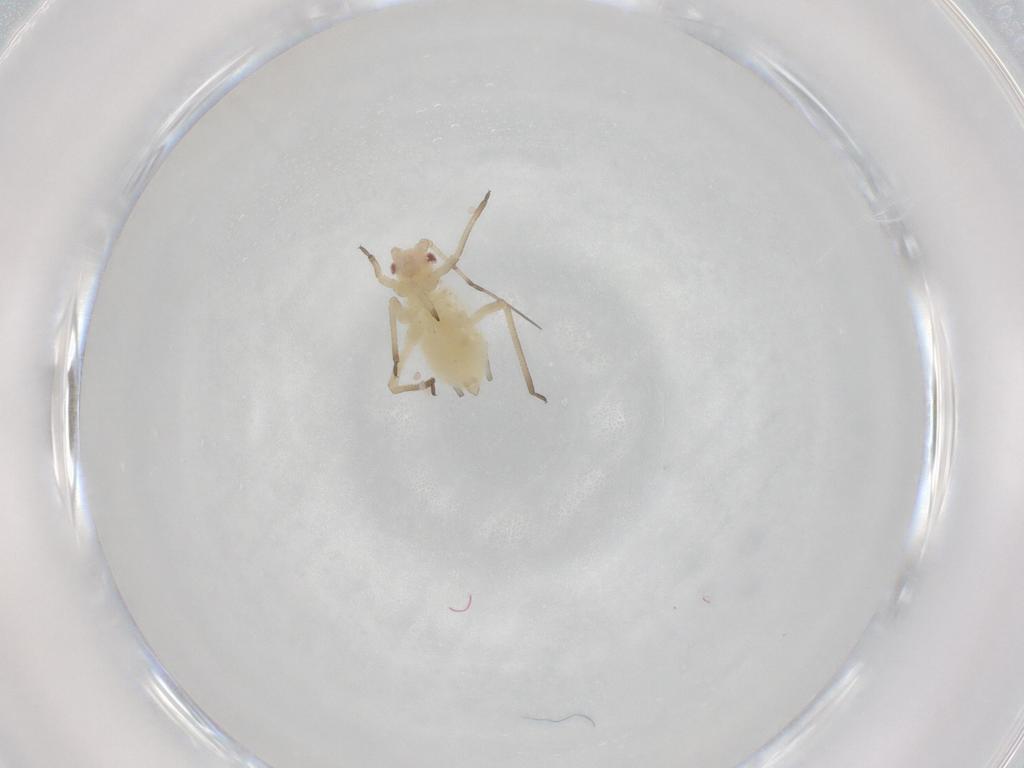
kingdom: Animalia
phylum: Arthropoda
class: Insecta
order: Hemiptera
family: Aphididae
